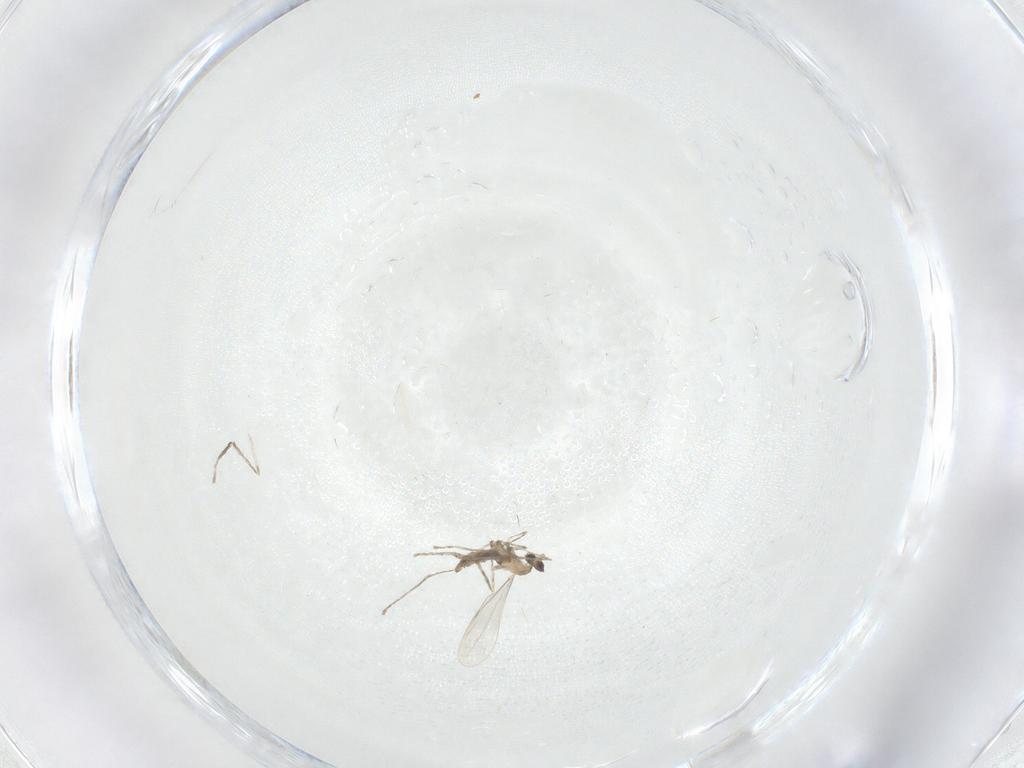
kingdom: Animalia
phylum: Arthropoda
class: Insecta
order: Diptera
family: Cecidomyiidae
